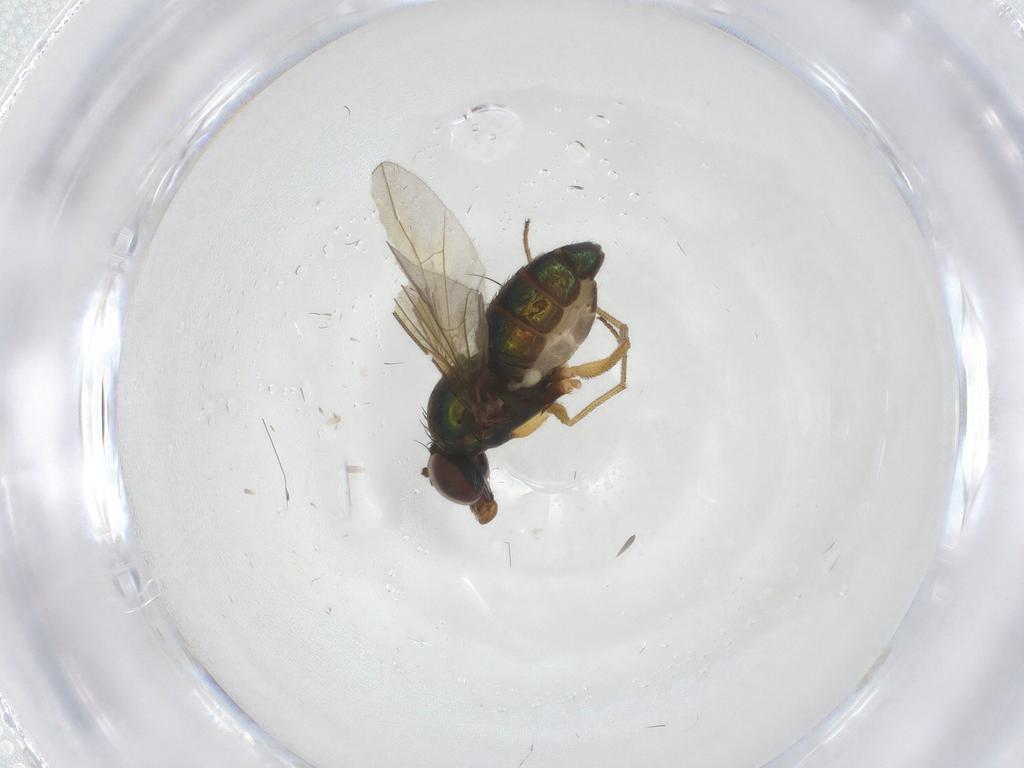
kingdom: Animalia
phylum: Arthropoda
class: Insecta
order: Diptera
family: Dolichopodidae
